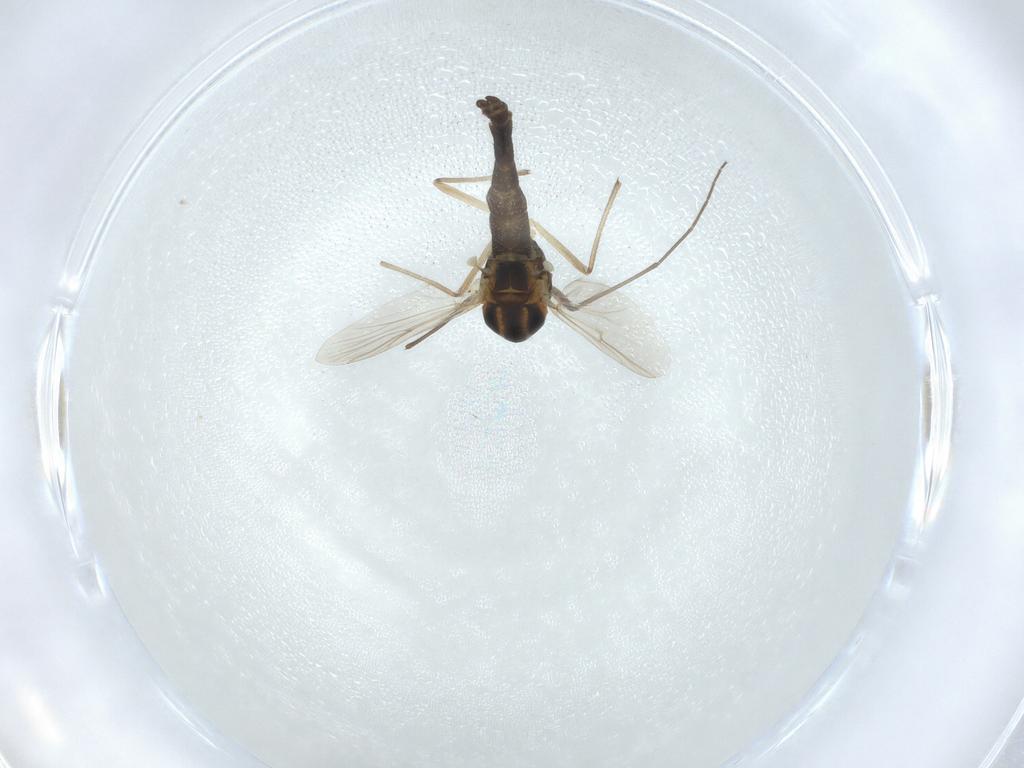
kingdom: Animalia
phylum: Arthropoda
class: Insecta
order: Diptera
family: Chironomidae
